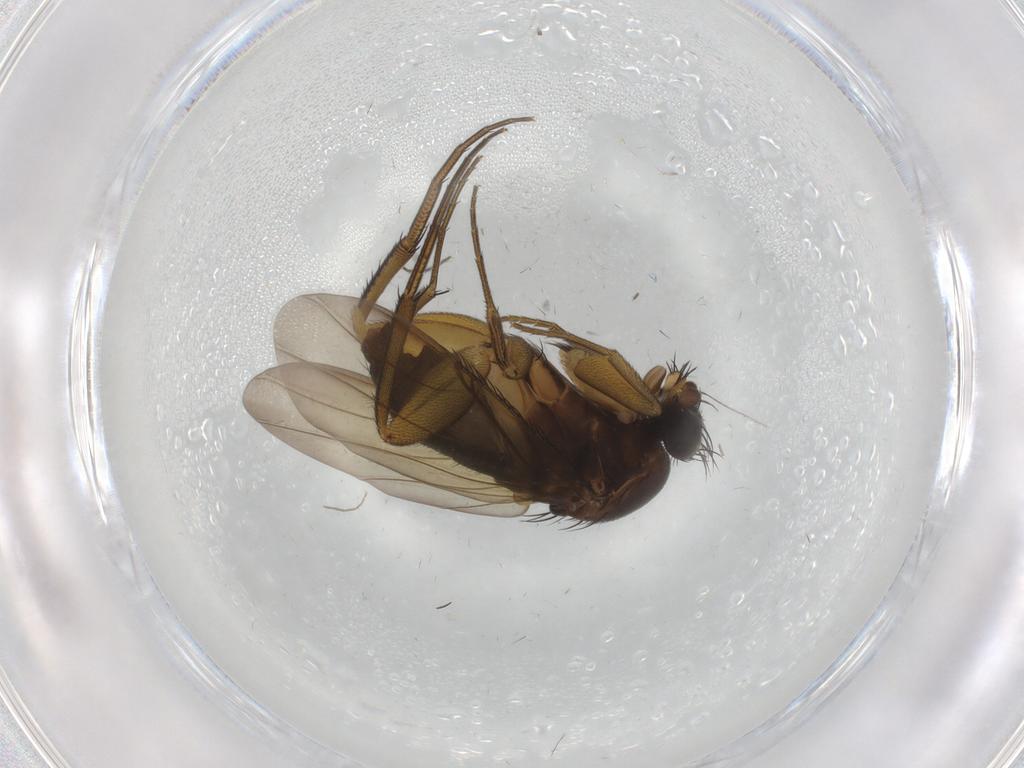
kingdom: Animalia
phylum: Arthropoda
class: Insecta
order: Diptera
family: Phoridae
